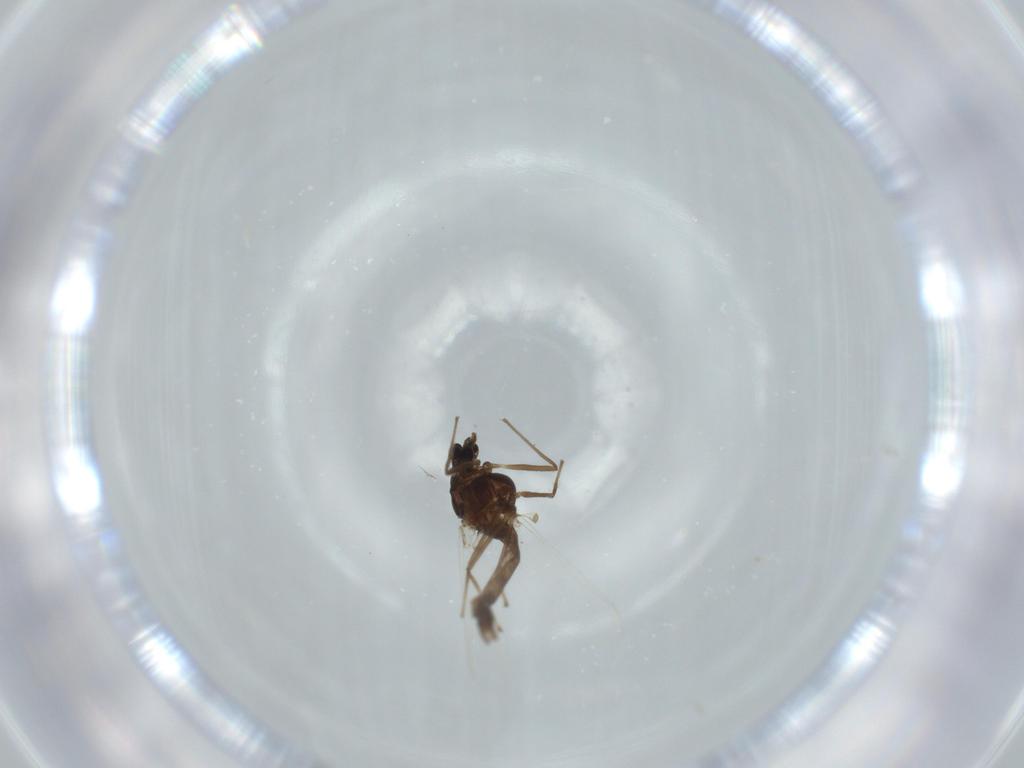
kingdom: Animalia
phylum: Arthropoda
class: Insecta
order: Diptera
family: Chironomidae
